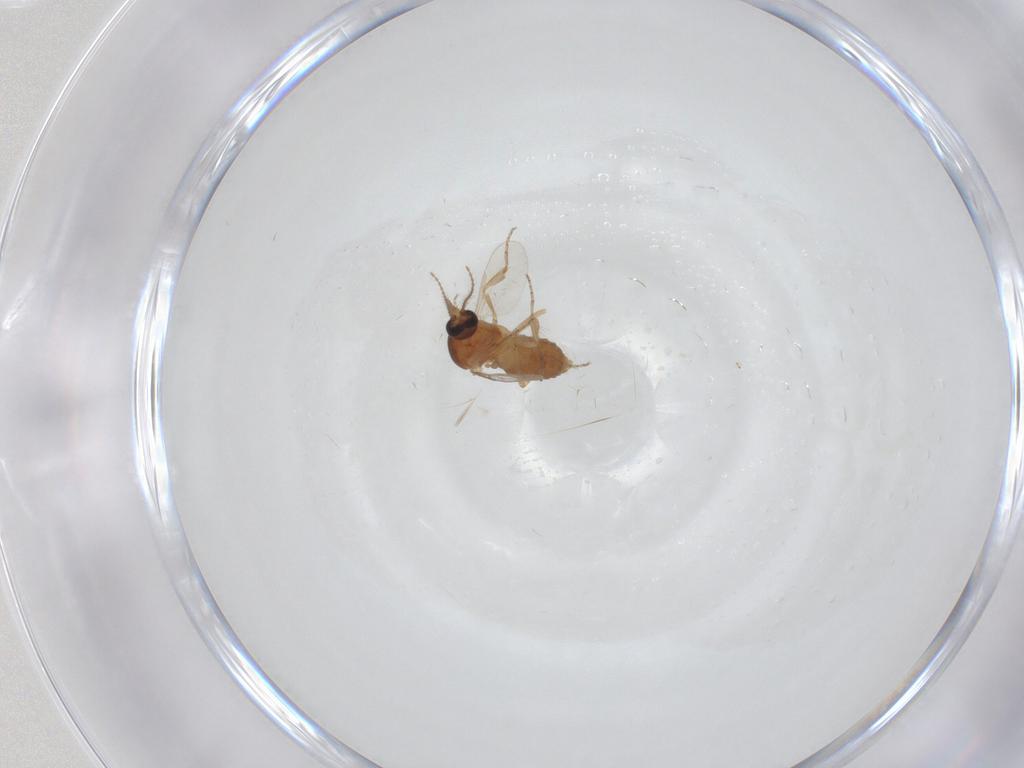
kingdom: Animalia
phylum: Arthropoda
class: Insecta
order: Diptera
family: Ceratopogonidae
